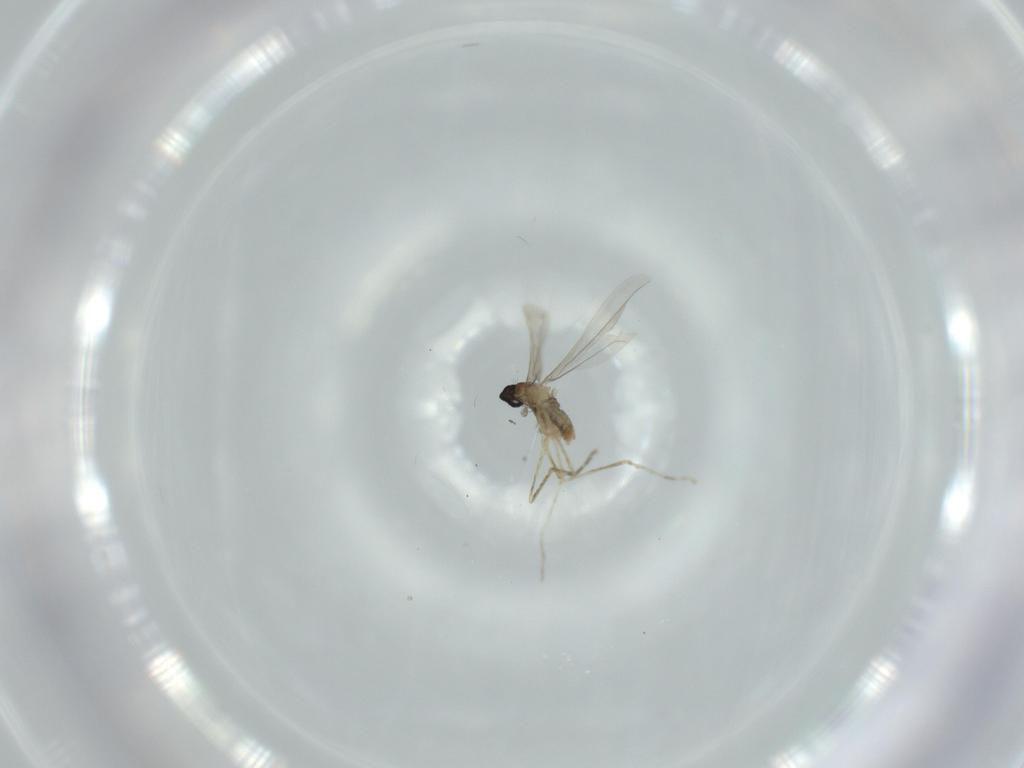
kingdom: Animalia
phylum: Arthropoda
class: Insecta
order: Diptera
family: Cecidomyiidae
